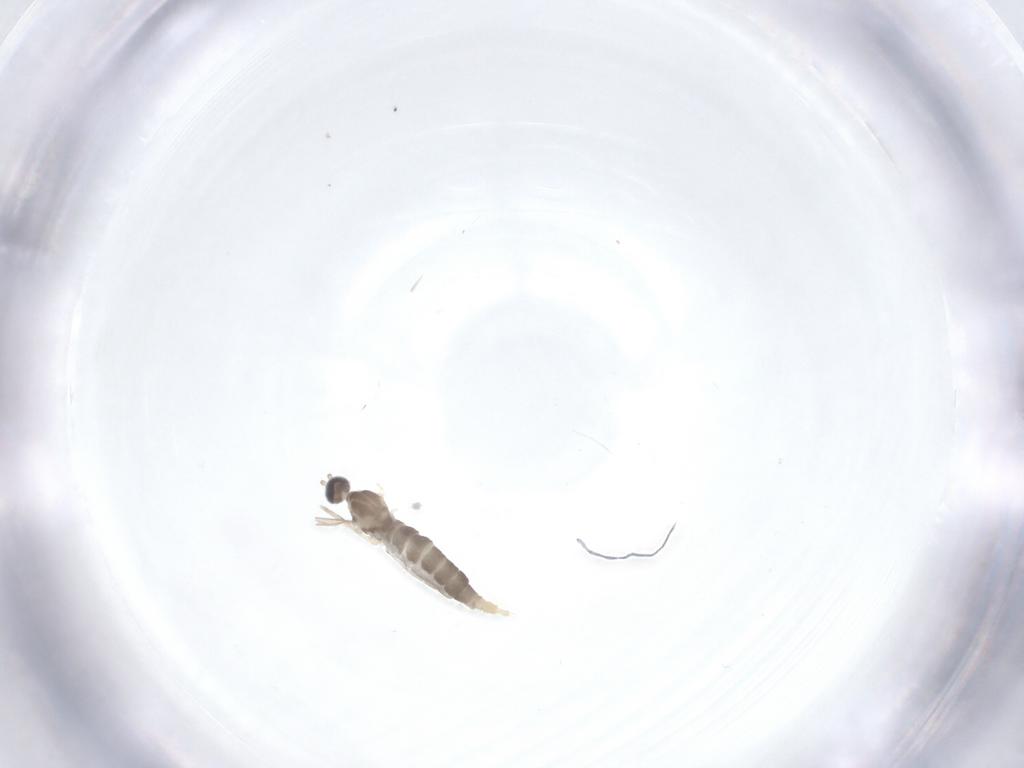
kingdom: Animalia
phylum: Arthropoda
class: Insecta
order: Diptera
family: Cecidomyiidae
